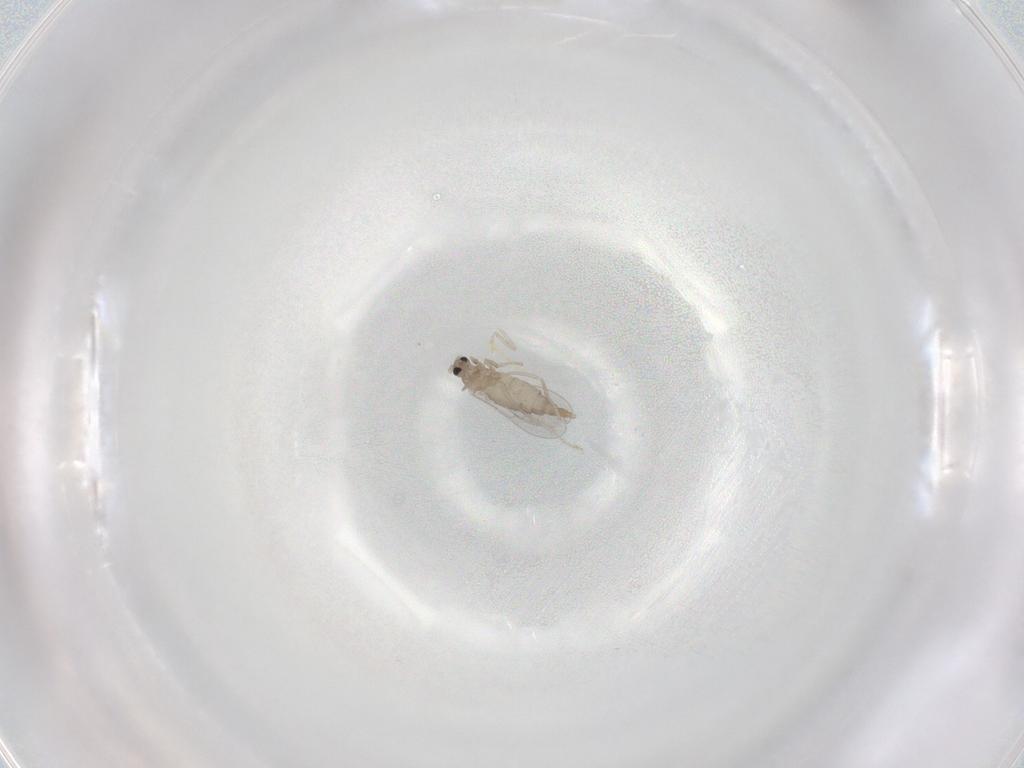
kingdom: Animalia
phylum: Arthropoda
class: Insecta
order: Diptera
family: Cecidomyiidae
